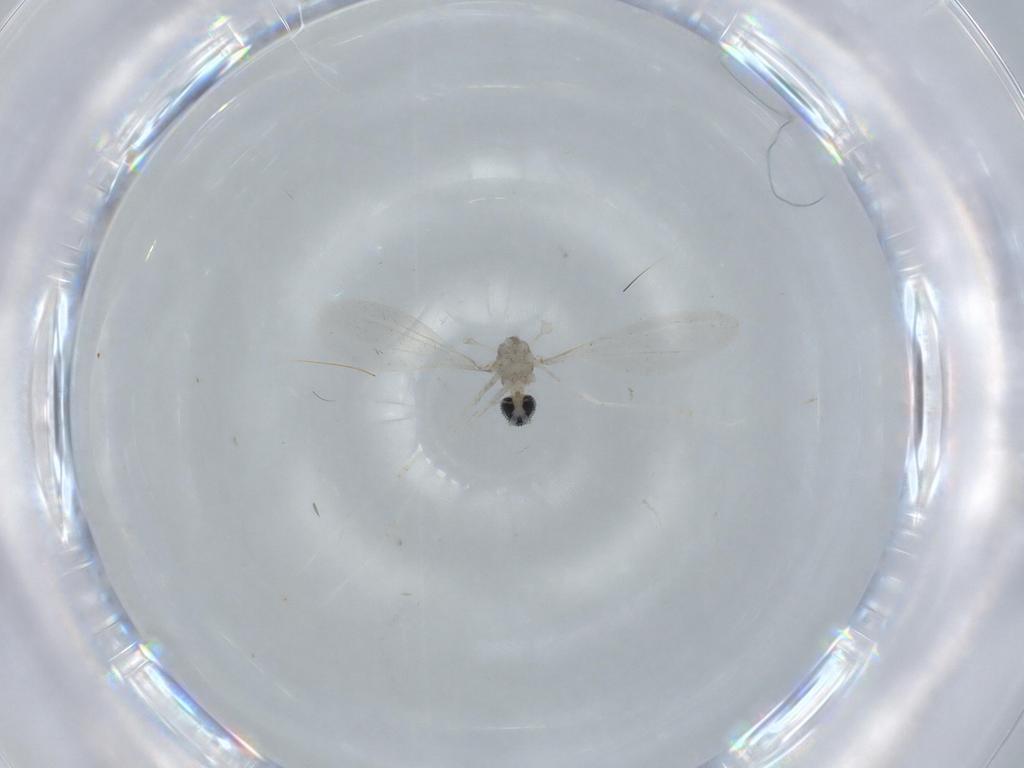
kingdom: Animalia
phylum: Arthropoda
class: Insecta
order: Diptera
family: Cecidomyiidae
